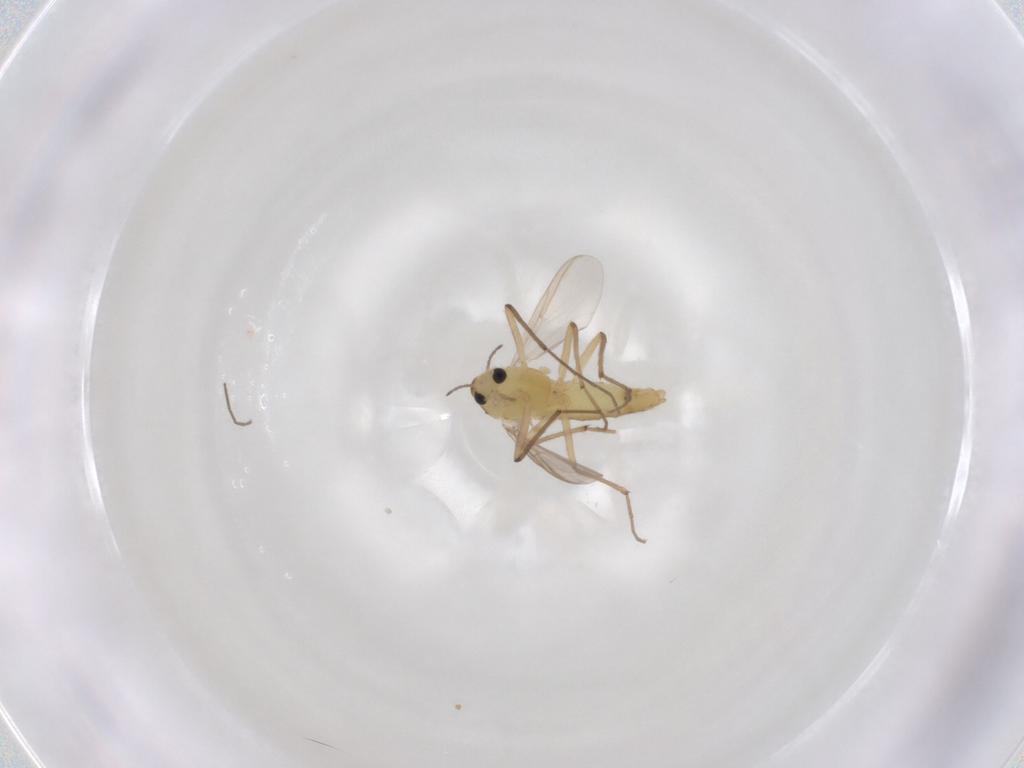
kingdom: Animalia
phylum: Arthropoda
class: Insecta
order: Diptera
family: Chironomidae
